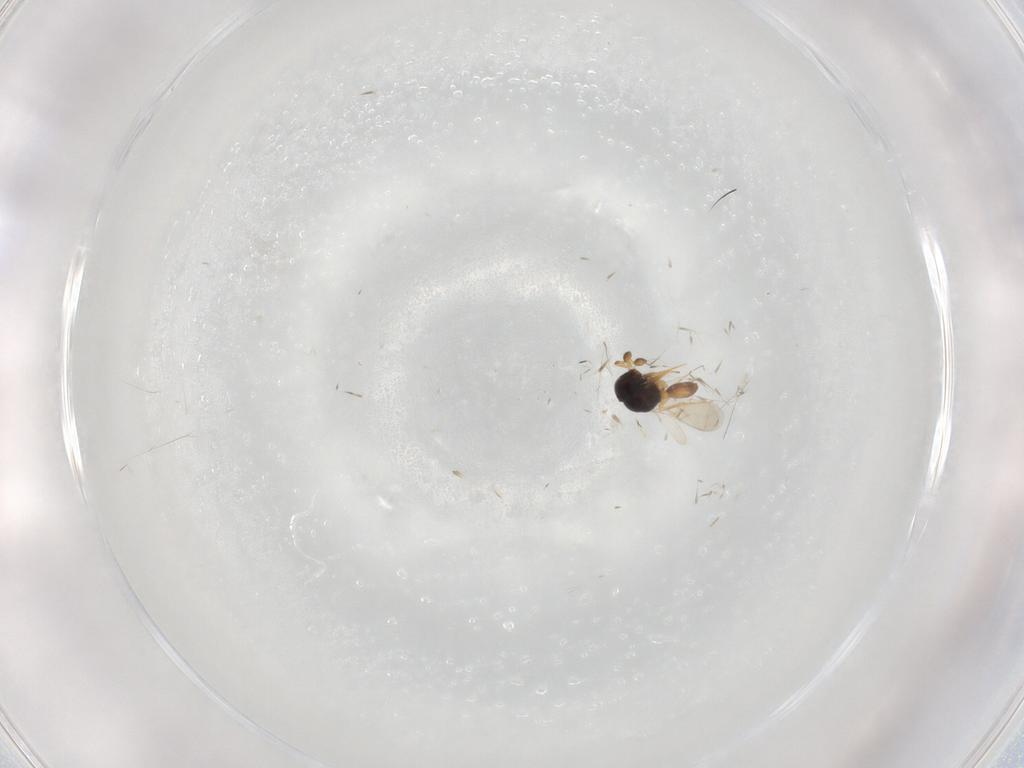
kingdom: Animalia
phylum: Arthropoda
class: Insecta
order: Hymenoptera
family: Scelionidae
